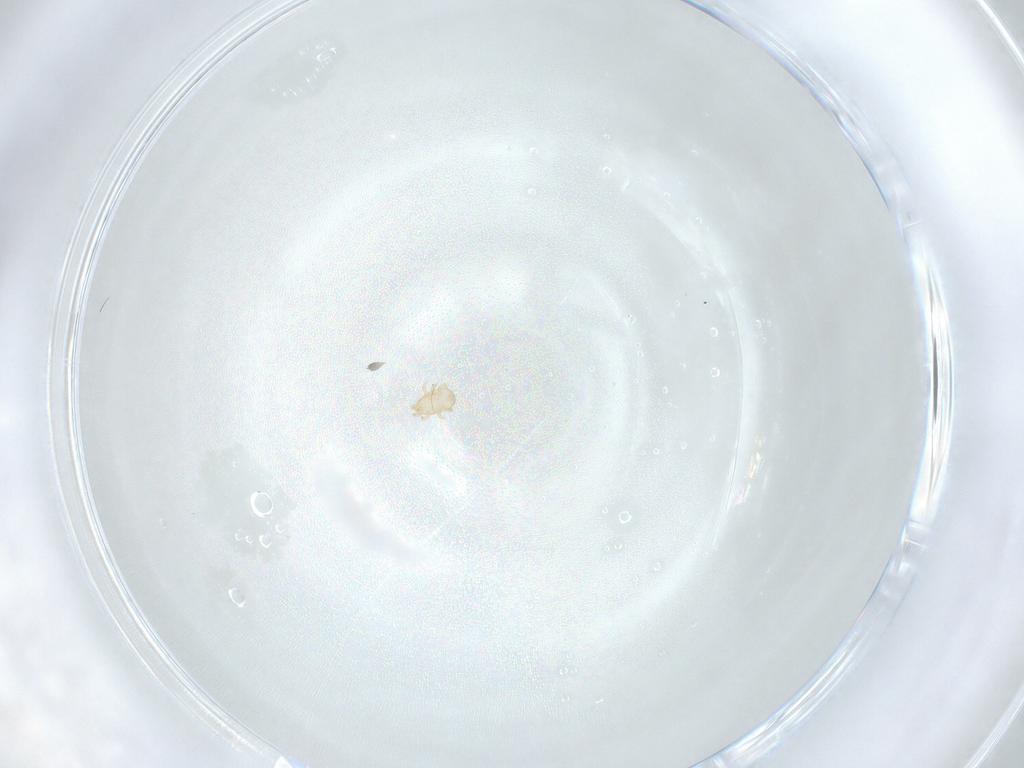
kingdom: Animalia
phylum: Arthropoda
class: Arachnida
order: Mesostigmata
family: Ascidae
